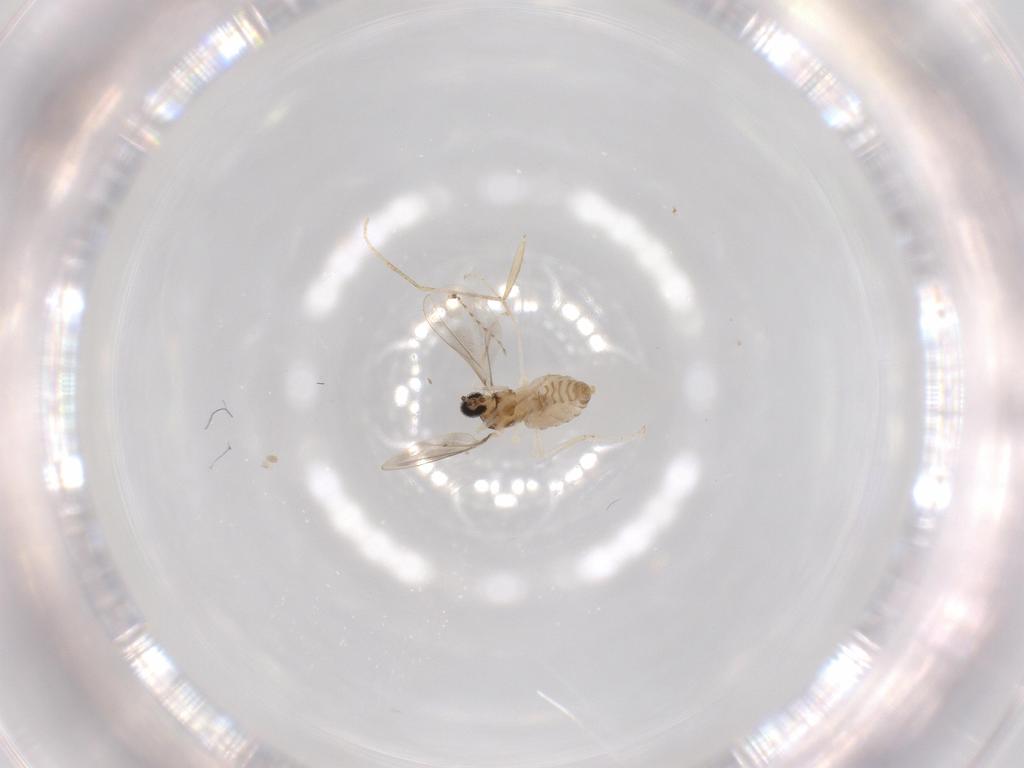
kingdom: Animalia
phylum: Arthropoda
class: Insecta
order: Diptera
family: Cecidomyiidae
